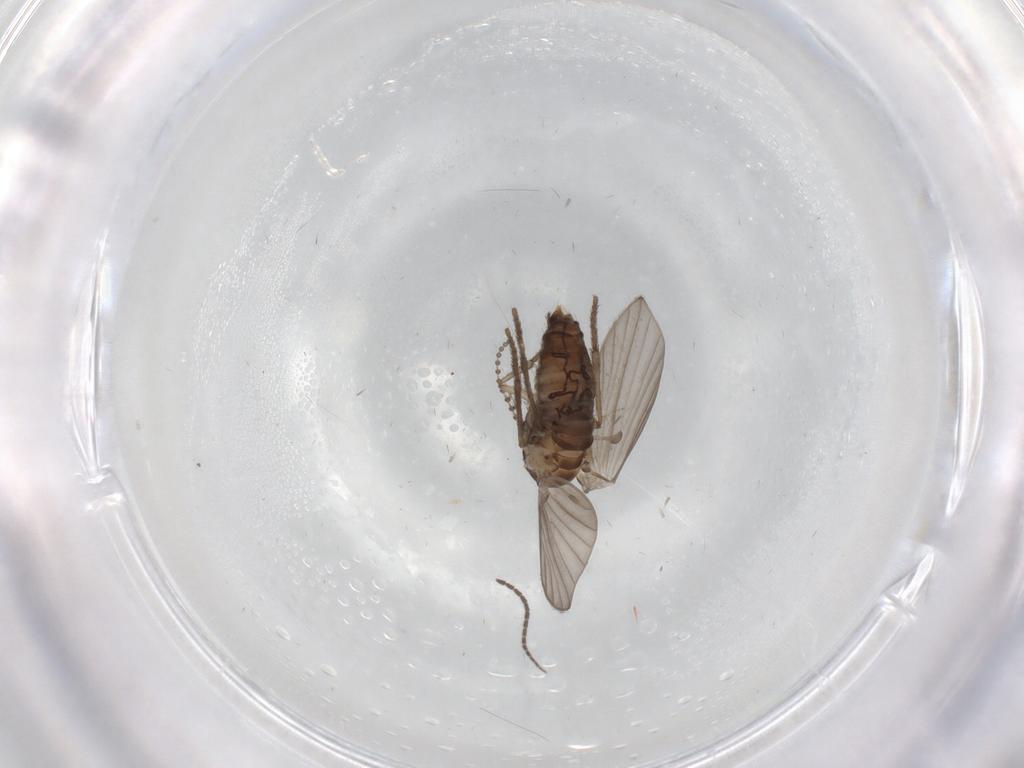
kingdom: Animalia
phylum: Arthropoda
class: Insecta
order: Diptera
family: Psychodidae
